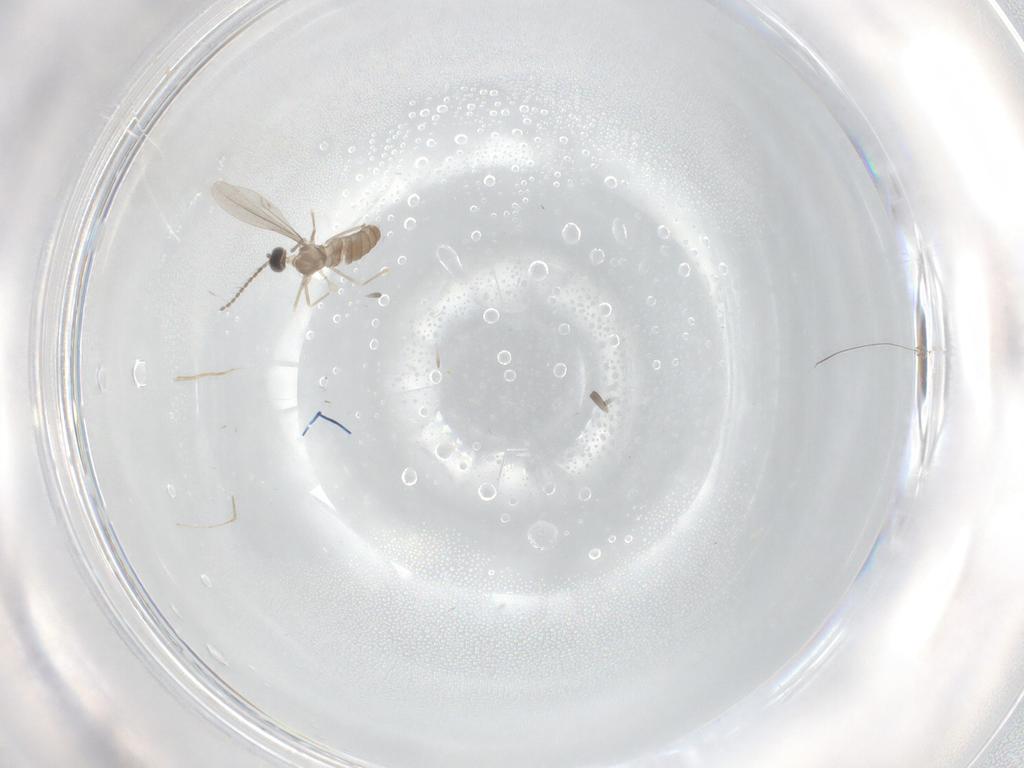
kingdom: Animalia
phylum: Arthropoda
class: Insecta
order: Diptera
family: Cecidomyiidae
